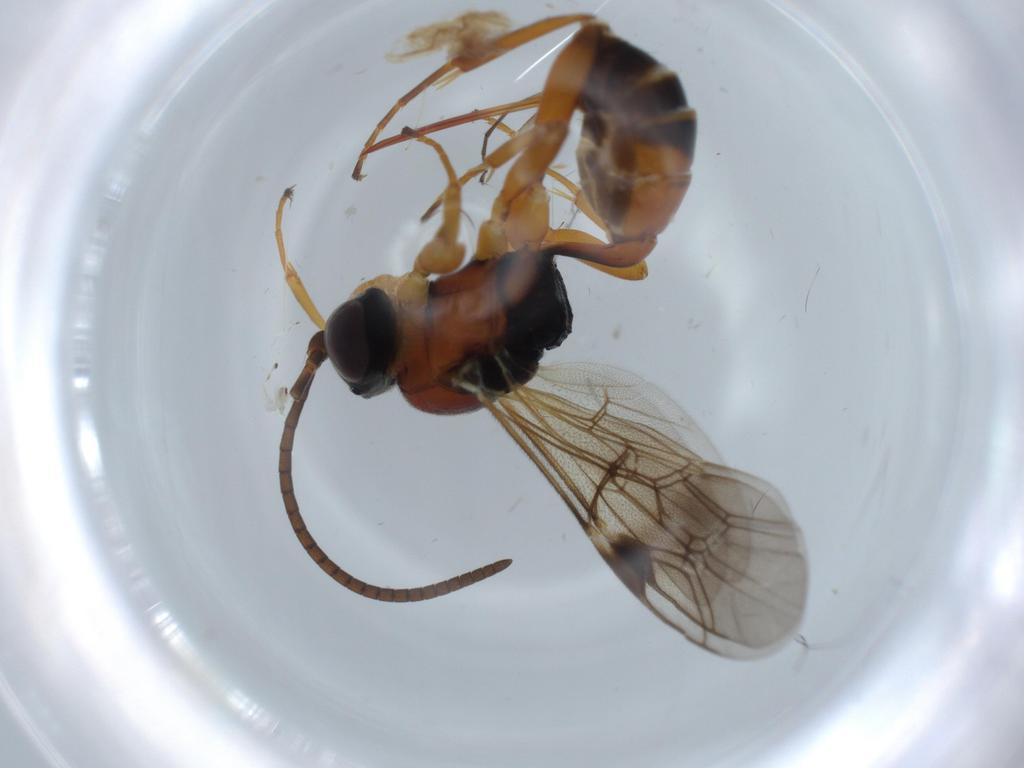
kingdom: Animalia
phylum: Arthropoda
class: Insecta
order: Hymenoptera
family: Ichneumonidae
